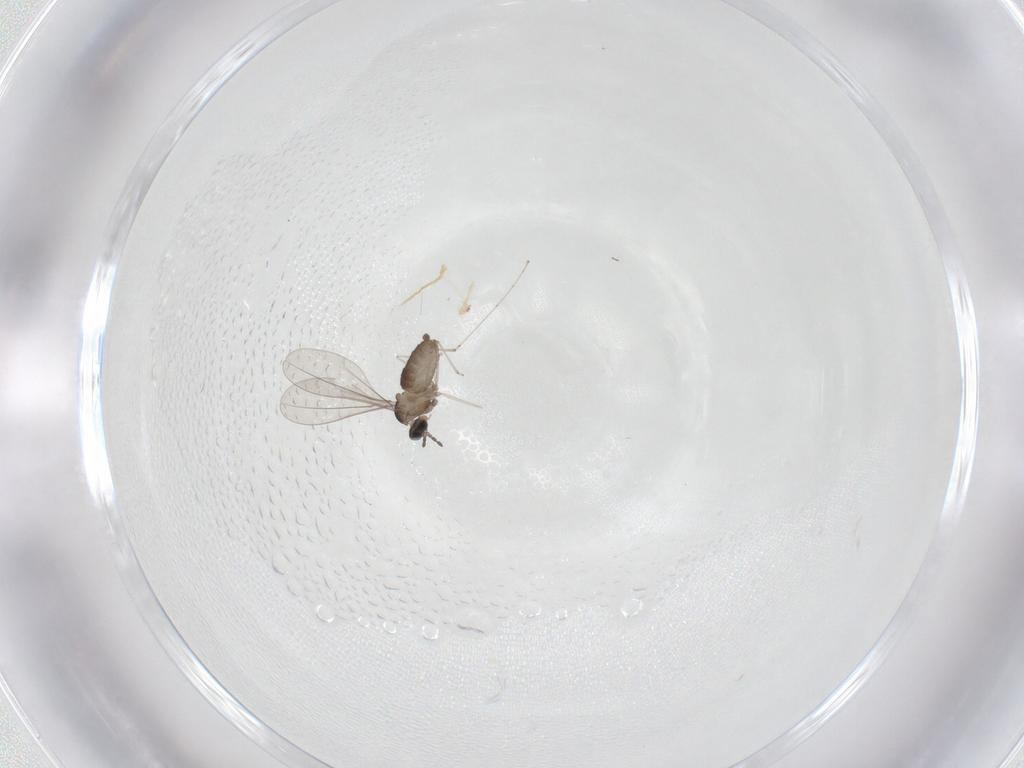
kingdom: Animalia
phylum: Arthropoda
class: Insecta
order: Diptera
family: Cecidomyiidae
